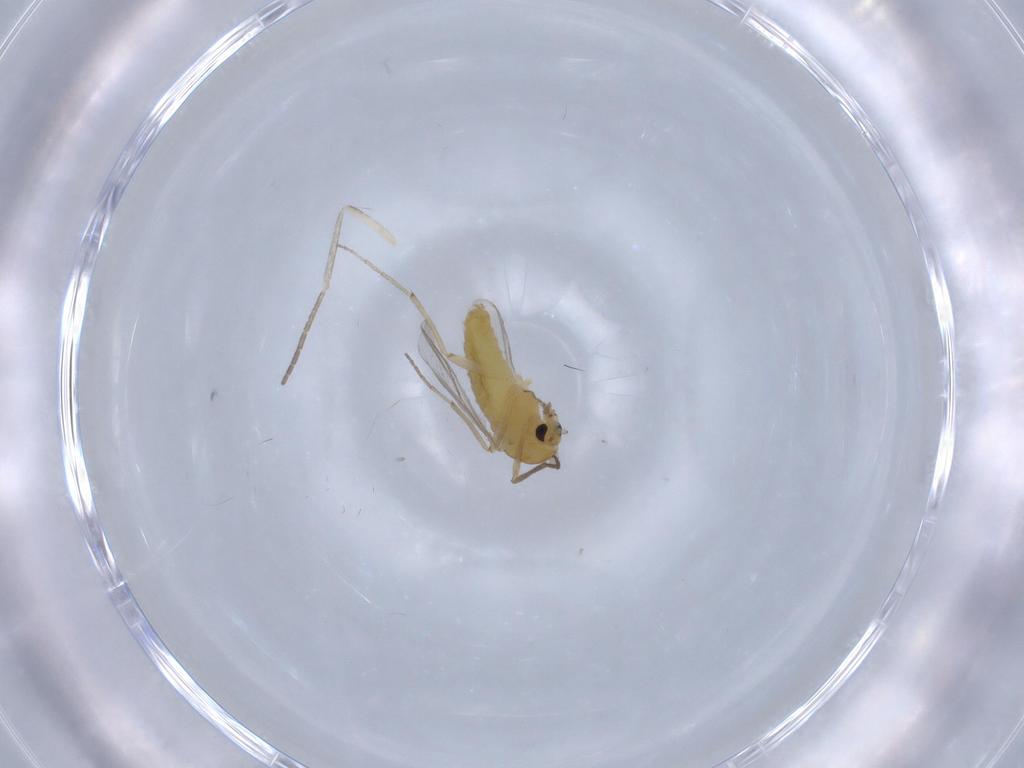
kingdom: Animalia
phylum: Arthropoda
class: Insecta
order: Diptera
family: Chironomidae
